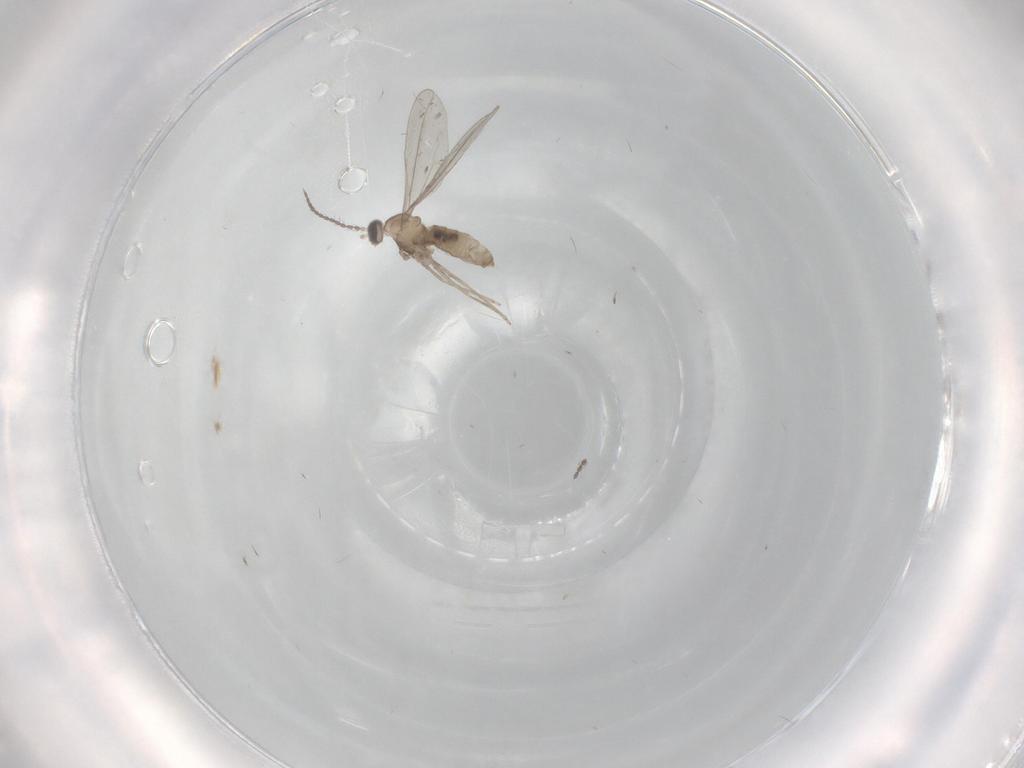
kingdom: Animalia
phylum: Arthropoda
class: Insecta
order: Diptera
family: Cecidomyiidae
